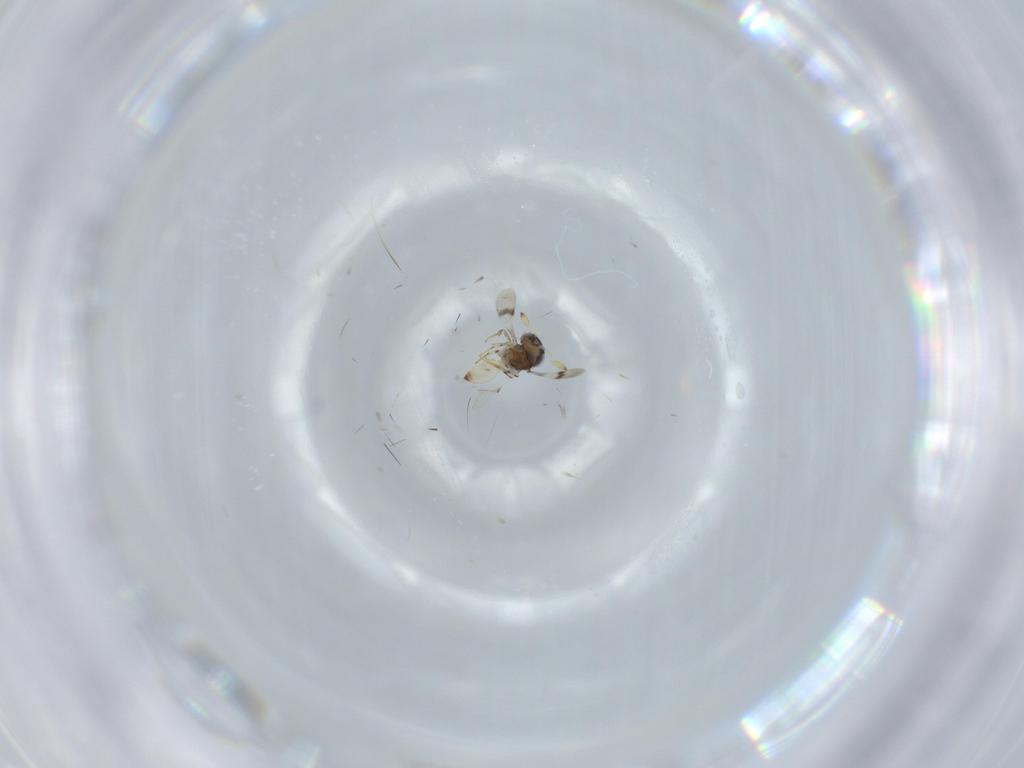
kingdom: Animalia
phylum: Arthropoda
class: Insecta
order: Hymenoptera
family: Scelionidae
